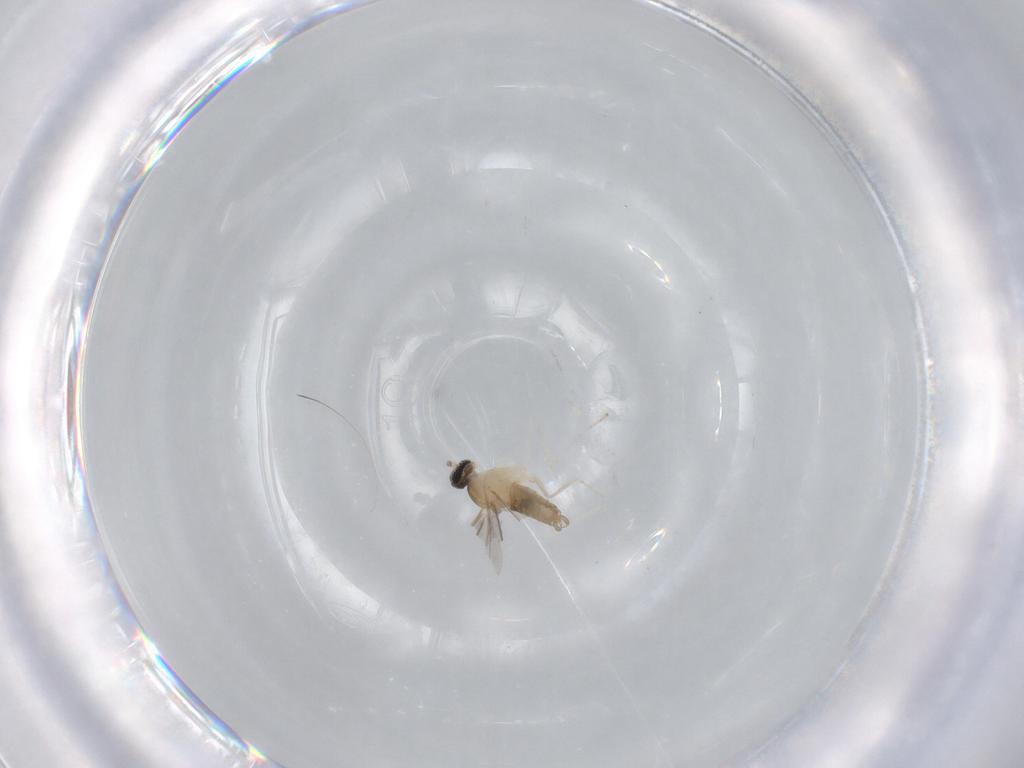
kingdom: Animalia
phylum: Arthropoda
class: Insecta
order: Diptera
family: Cecidomyiidae
